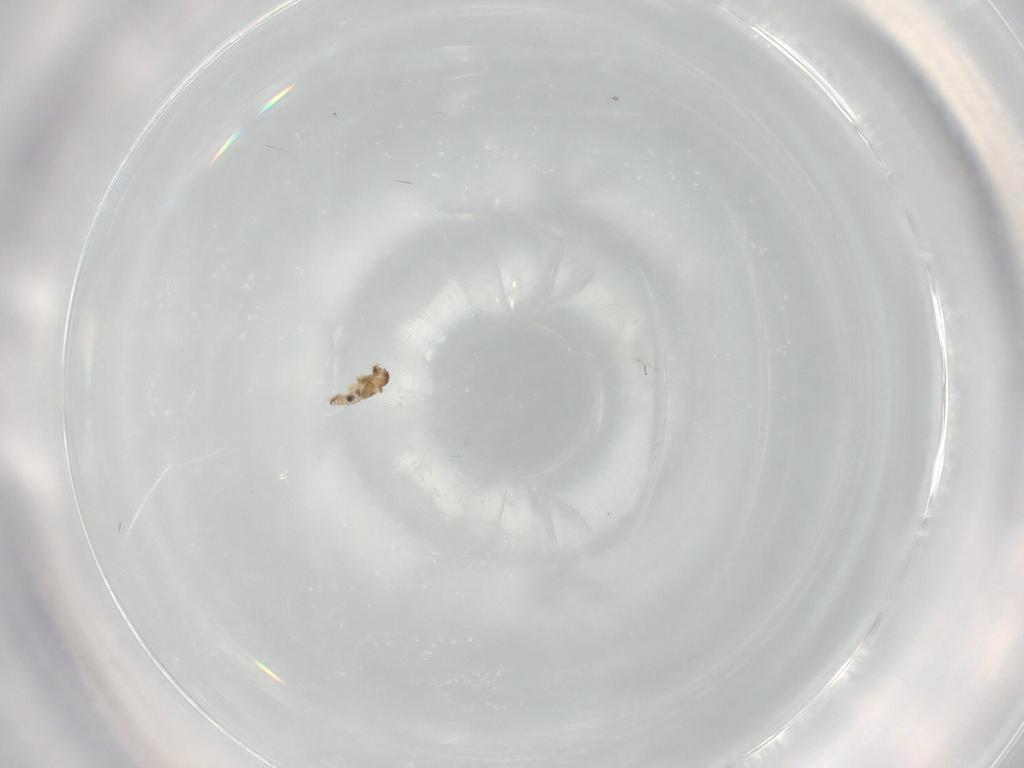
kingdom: Animalia
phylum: Arthropoda
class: Insecta
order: Diptera
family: Cecidomyiidae
